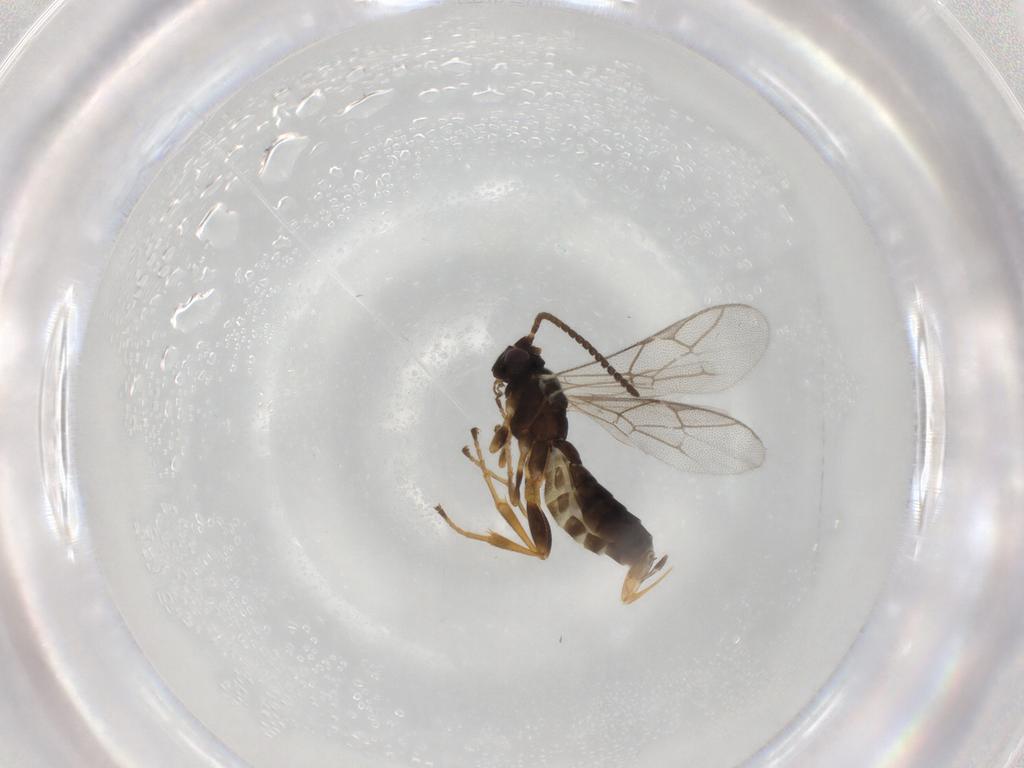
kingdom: Animalia
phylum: Arthropoda
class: Insecta
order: Hymenoptera
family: Ichneumonidae
